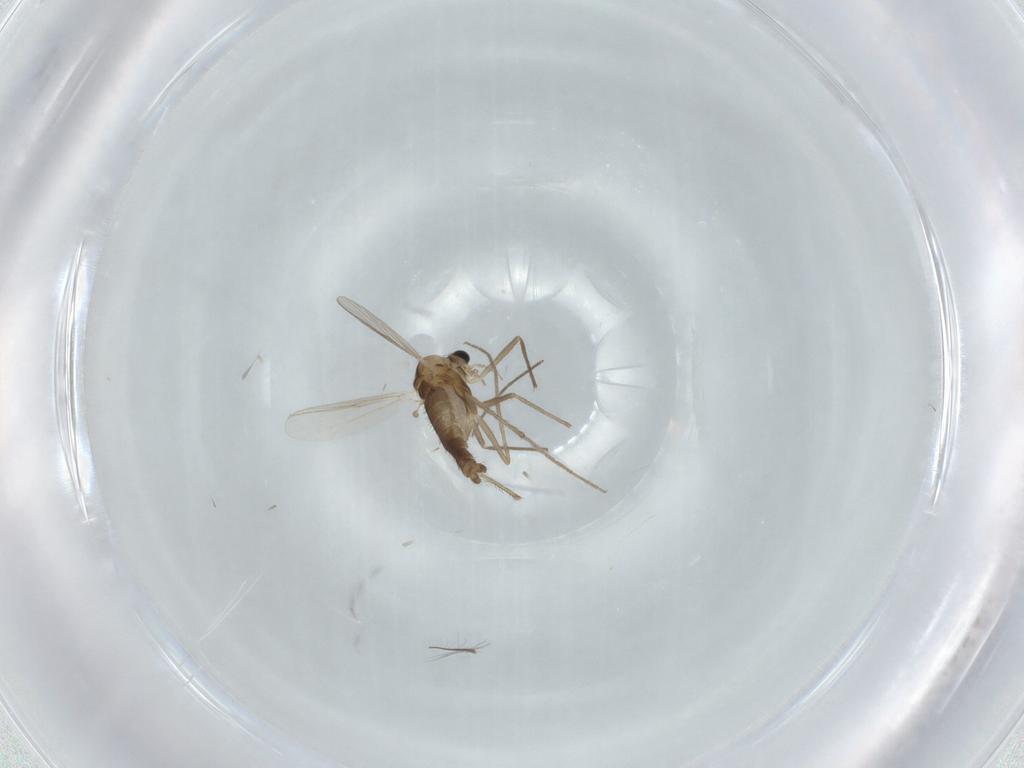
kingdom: Animalia
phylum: Arthropoda
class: Insecta
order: Diptera
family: Chironomidae
